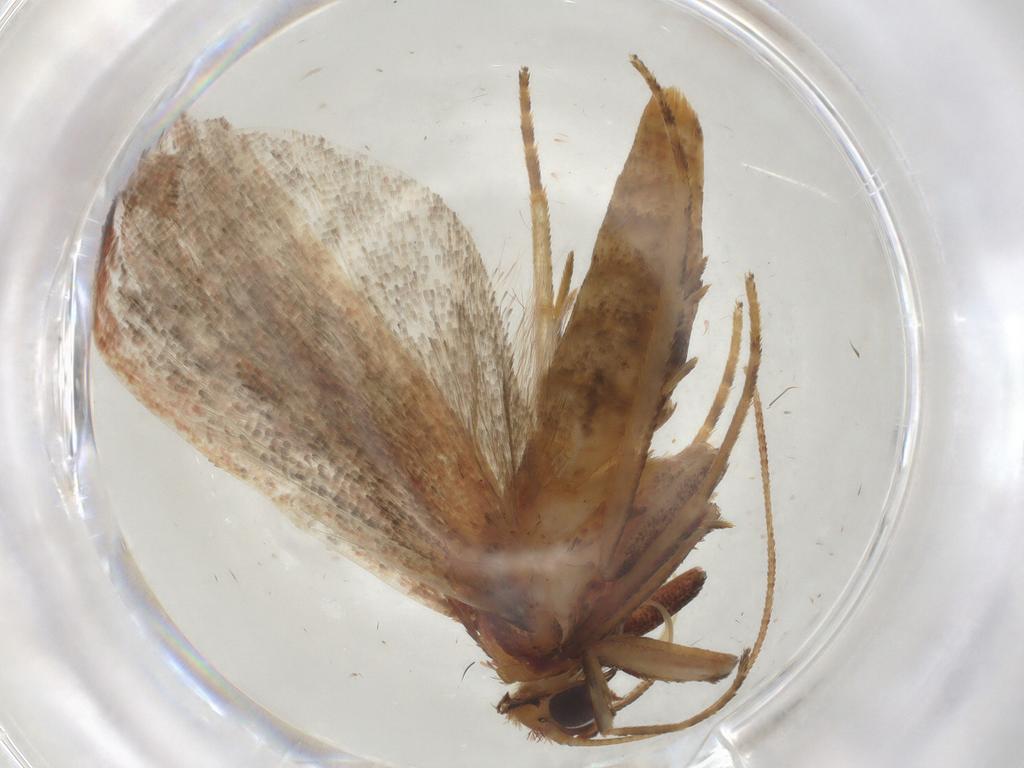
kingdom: Animalia
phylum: Arthropoda
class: Insecta
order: Lepidoptera
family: Pyralidae
